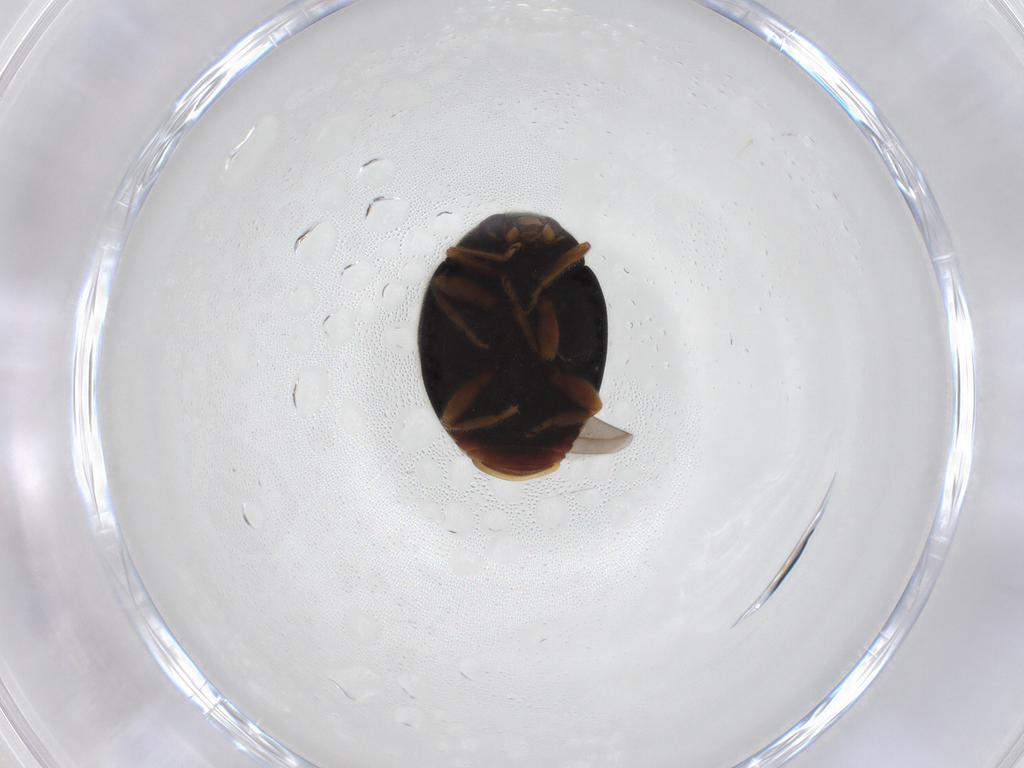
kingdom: Animalia
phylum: Arthropoda
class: Insecta
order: Coleoptera
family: Coccinellidae
